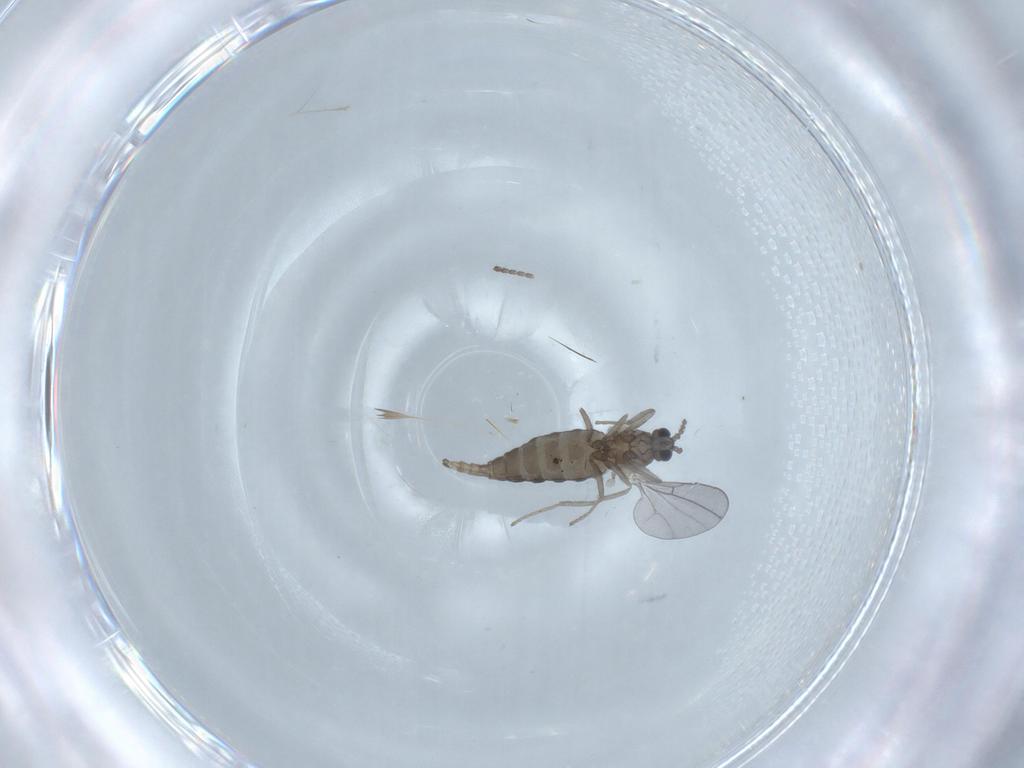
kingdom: Animalia
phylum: Arthropoda
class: Insecta
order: Diptera
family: Cecidomyiidae
